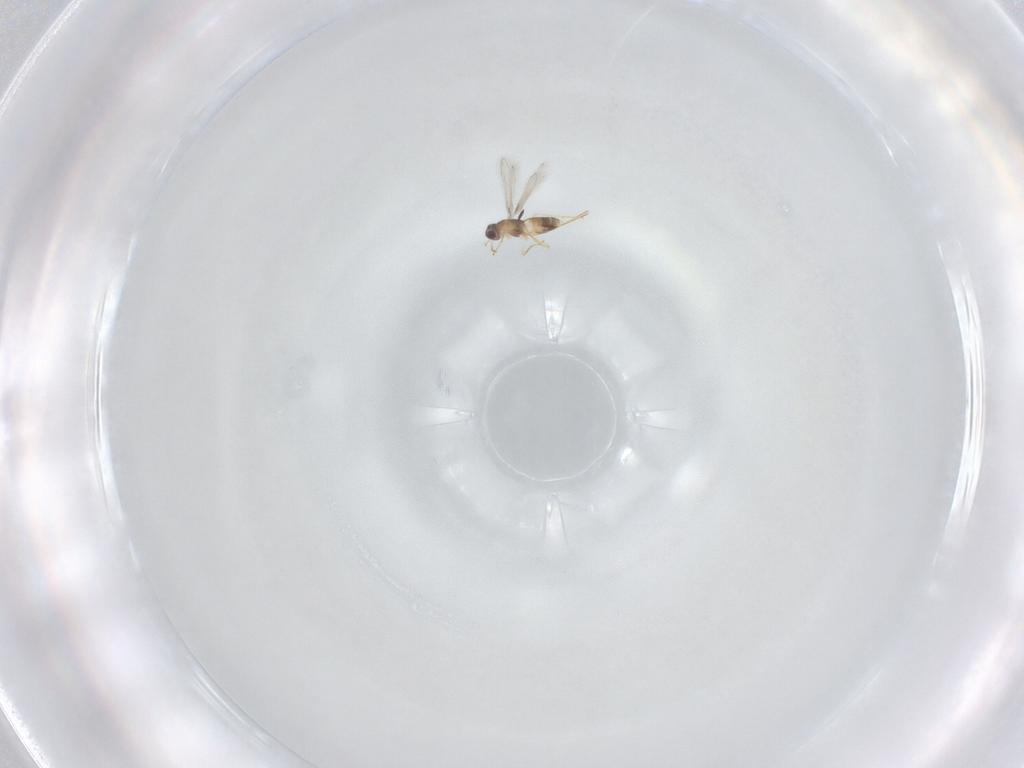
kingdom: Animalia
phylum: Arthropoda
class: Insecta
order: Hymenoptera
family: Mymaridae
